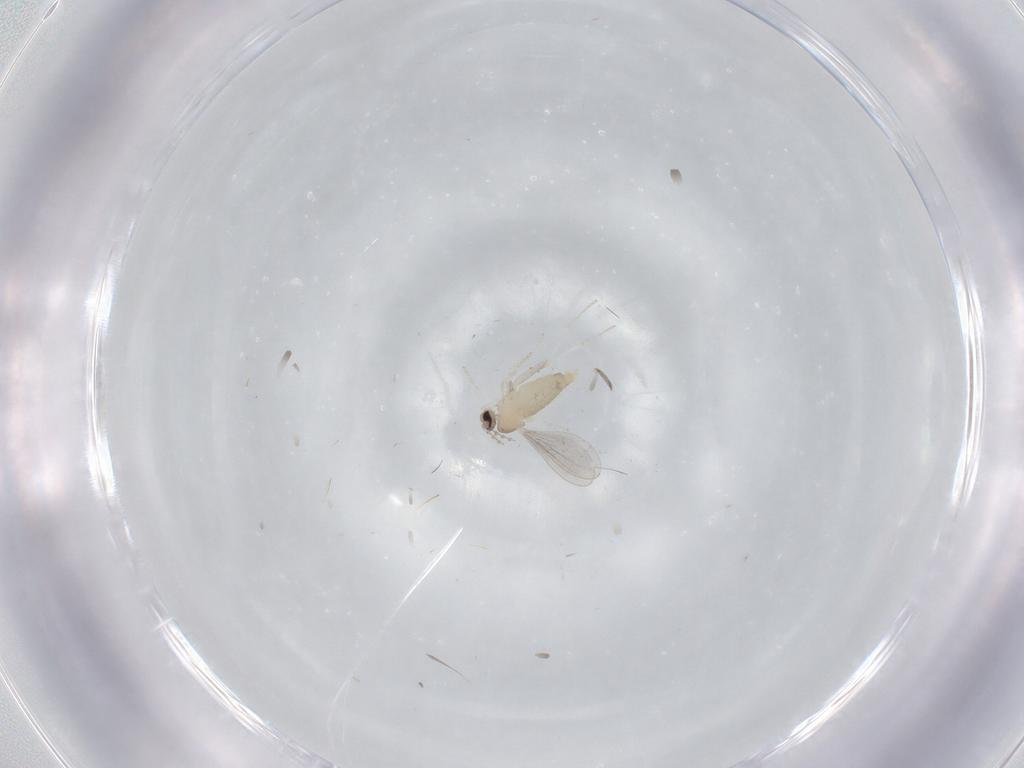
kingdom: Animalia
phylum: Arthropoda
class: Insecta
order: Diptera
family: Cecidomyiidae
